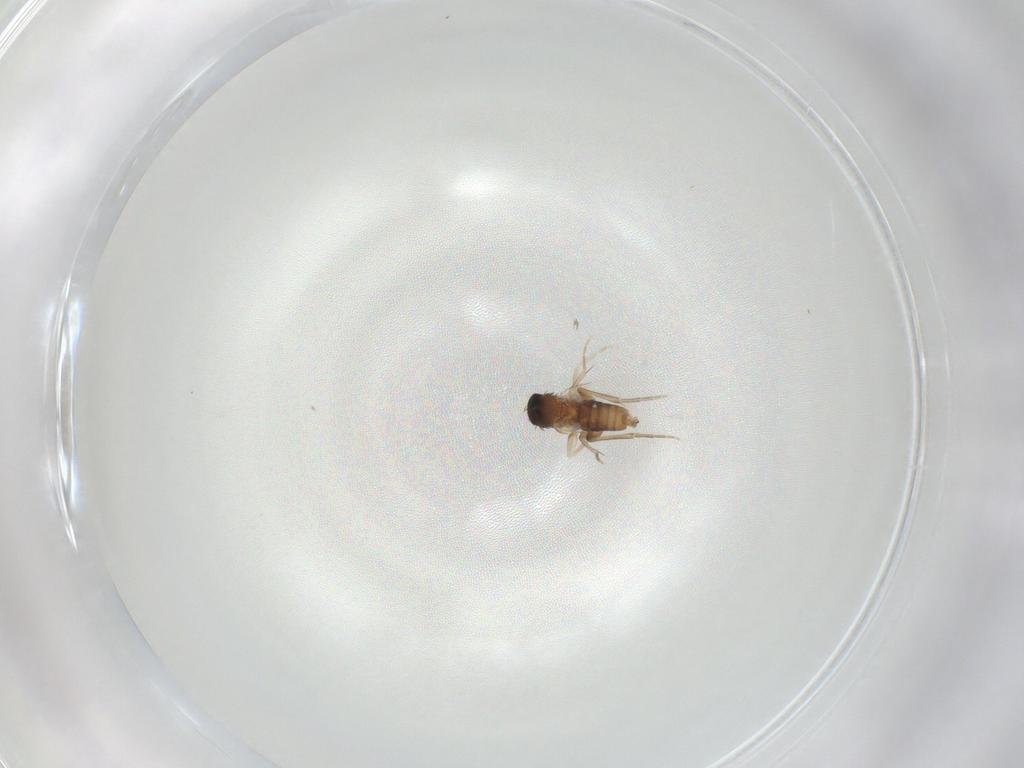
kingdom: Animalia
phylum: Arthropoda
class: Insecta
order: Diptera
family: Phoridae
